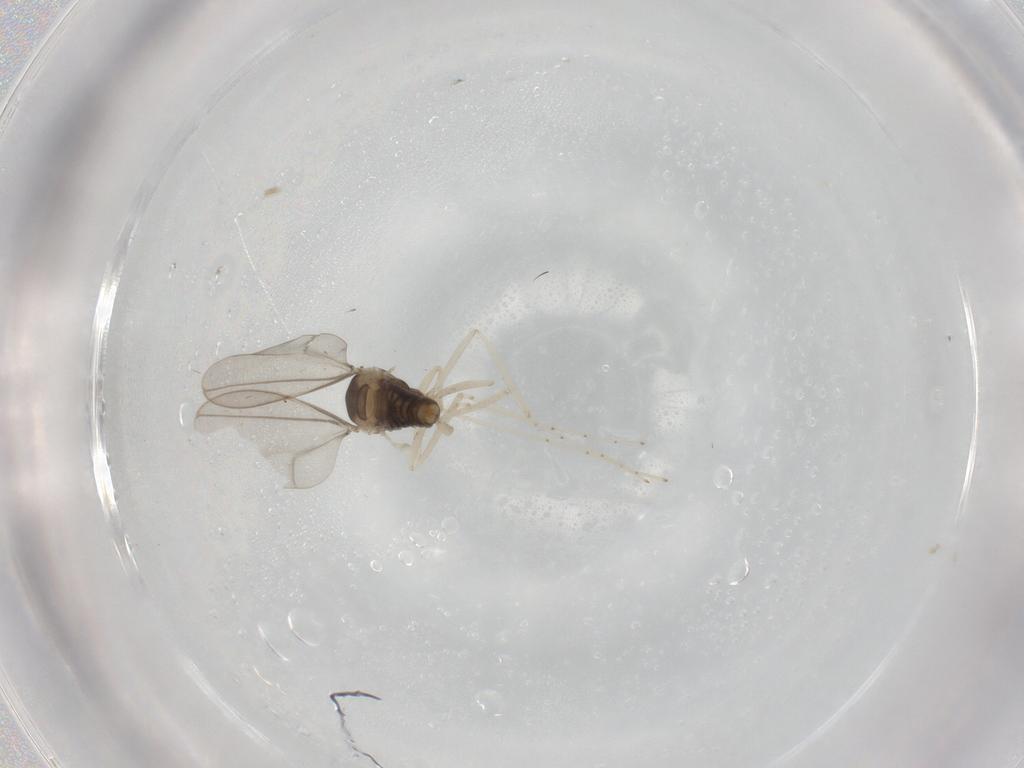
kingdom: Animalia
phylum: Arthropoda
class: Insecta
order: Diptera
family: Cecidomyiidae
